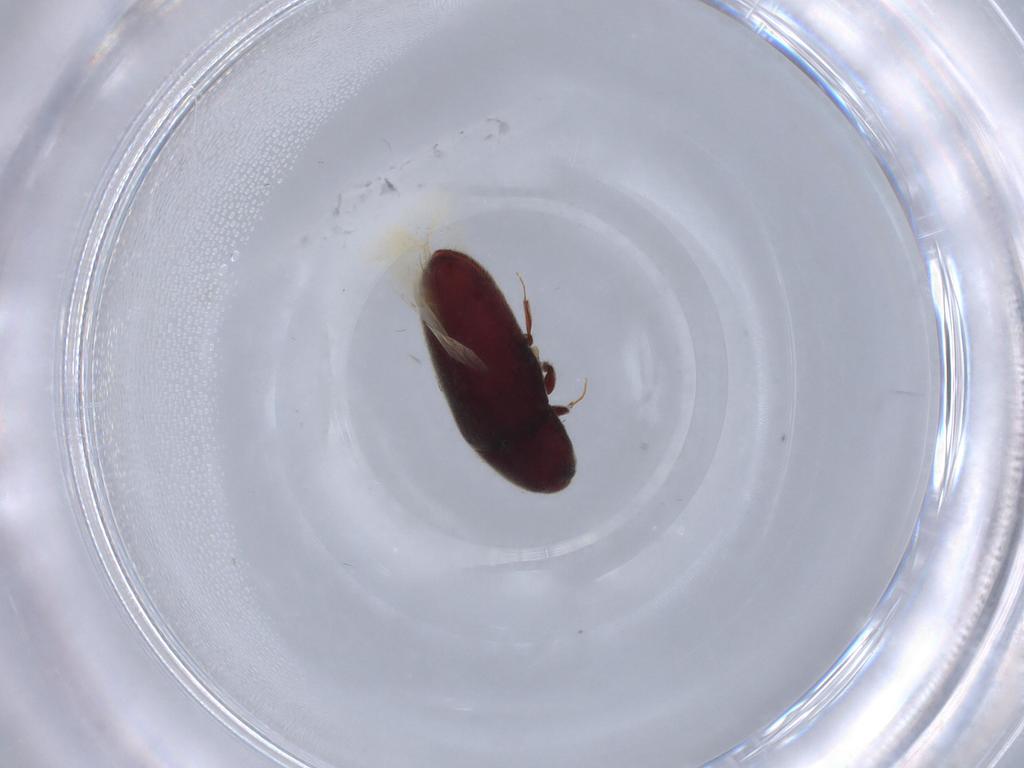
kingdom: Animalia
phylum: Arthropoda
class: Insecta
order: Coleoptera
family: Throscidae
